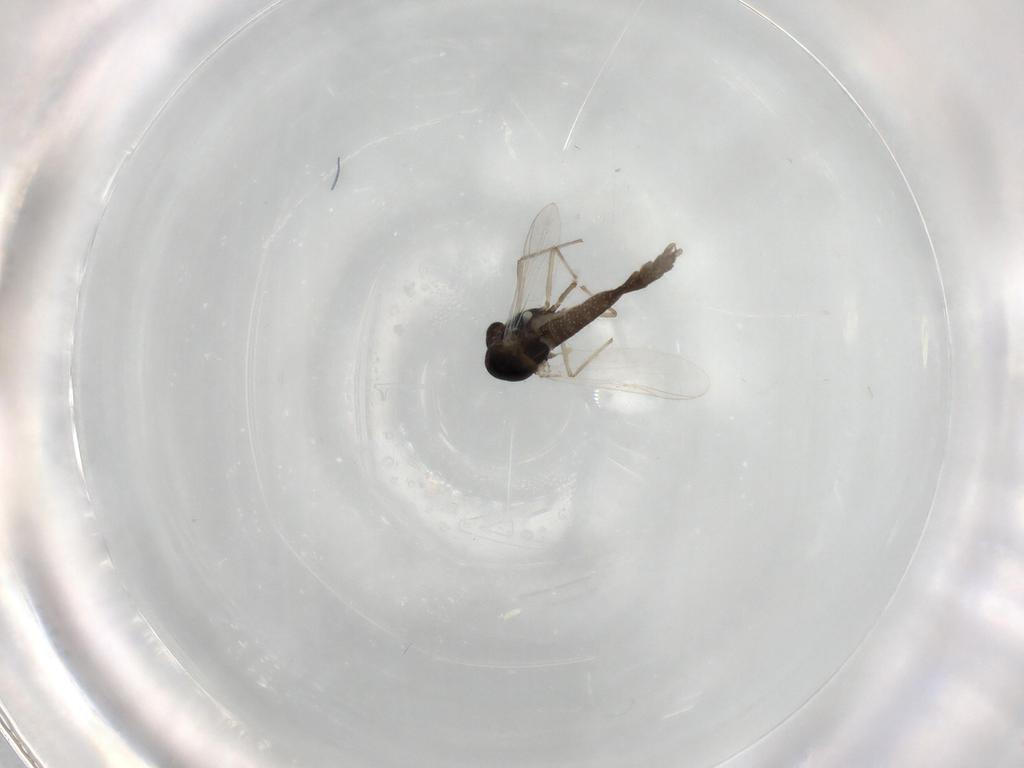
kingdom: Animalia
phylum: Arthropoda
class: Insecta
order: Diptera
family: Chironomidae
